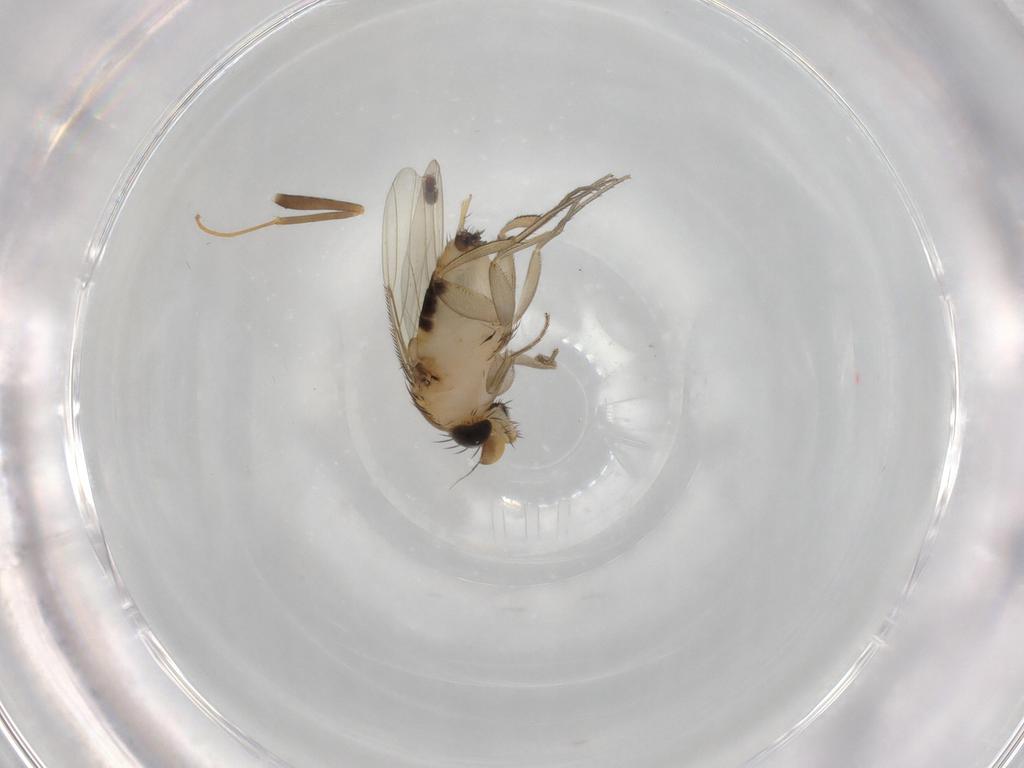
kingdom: Animalia
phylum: Arthropoda
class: Insecta
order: Diptera
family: Phoridae
